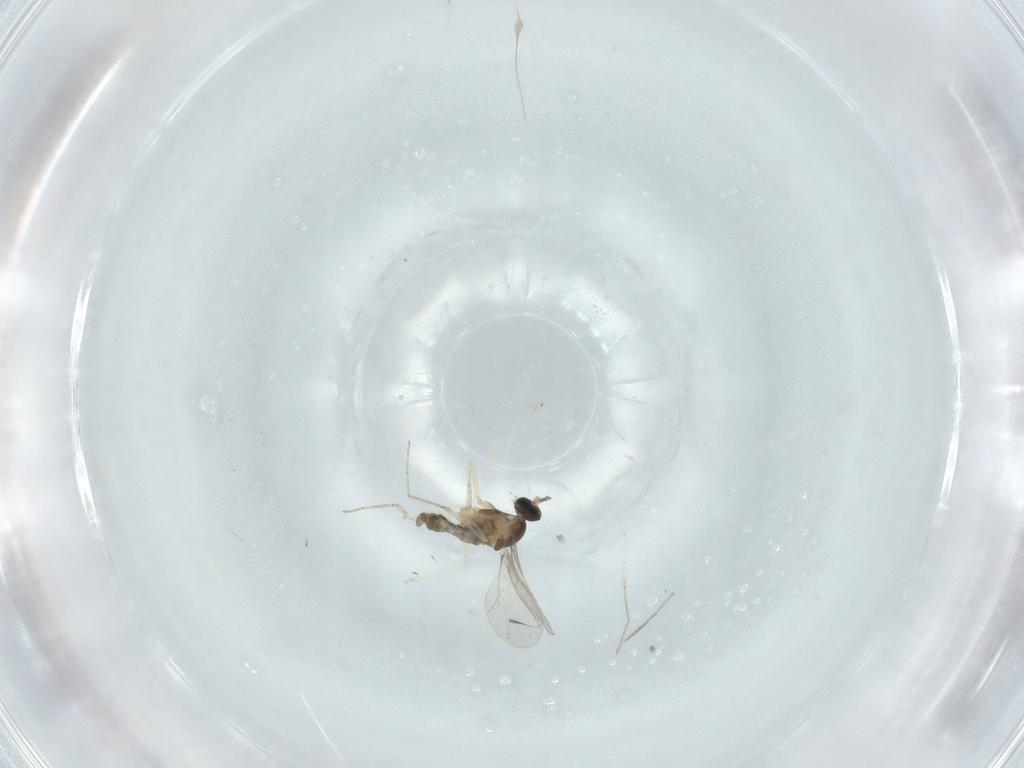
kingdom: Animalia
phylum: Arthropoda
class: Insecta
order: Diptera
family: Cecidomyiidae
